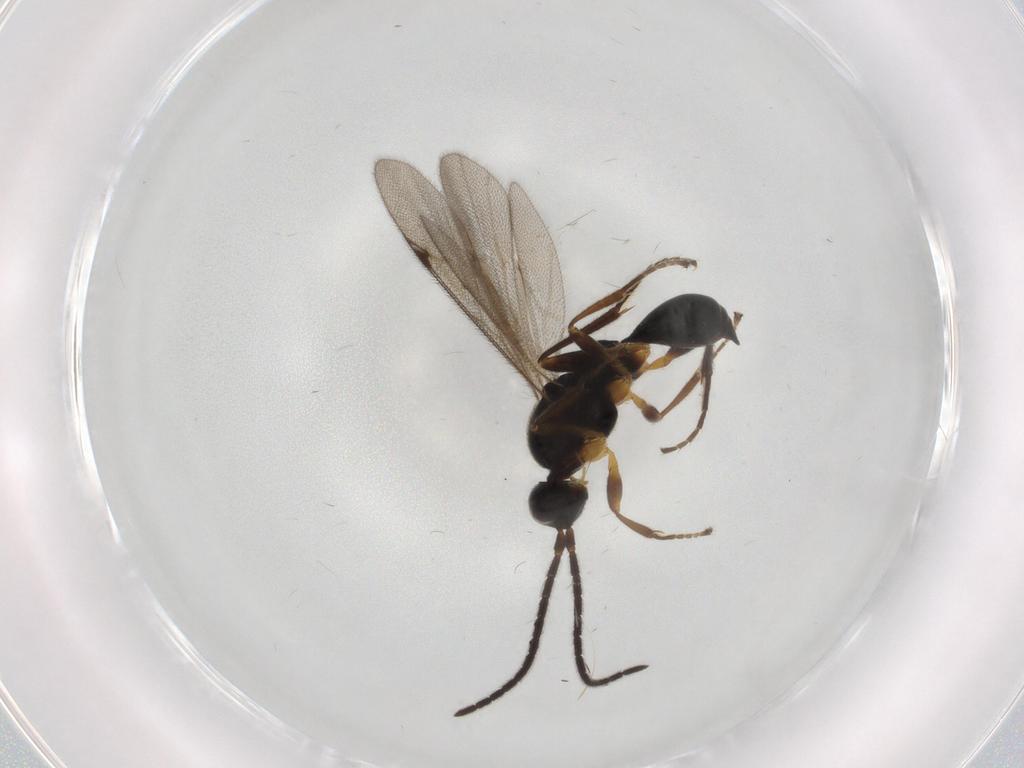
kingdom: Animalia
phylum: Arthropoda
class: Insecta
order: Hymenoptera
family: Proctotrupidae
